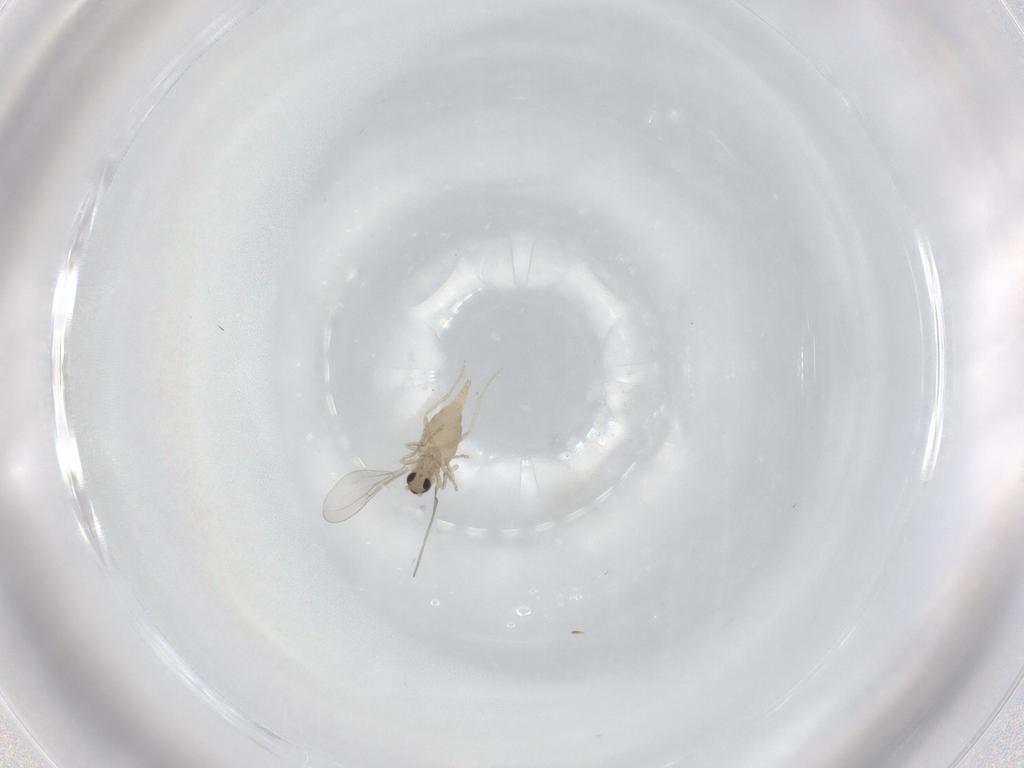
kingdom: Animalia
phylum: Arthropoda
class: Insecta
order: Diptera
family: Cecidomyiidae
